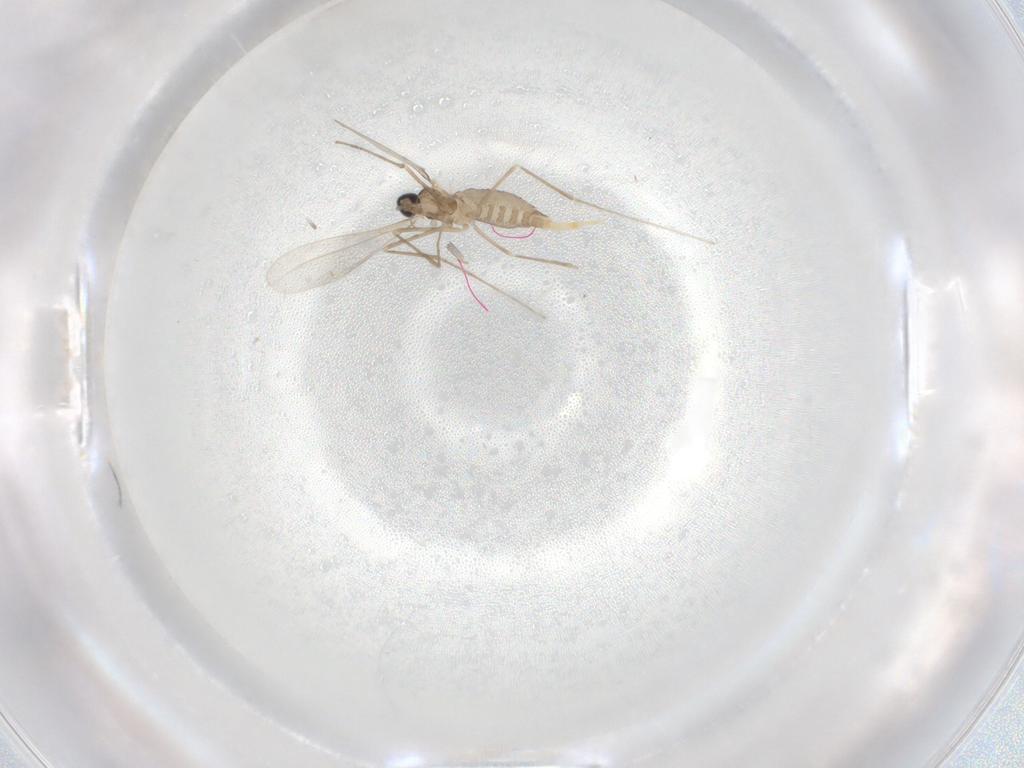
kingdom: Animalia
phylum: Arthropoda
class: Insecta
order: Diptera
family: Cecidomyiidae
